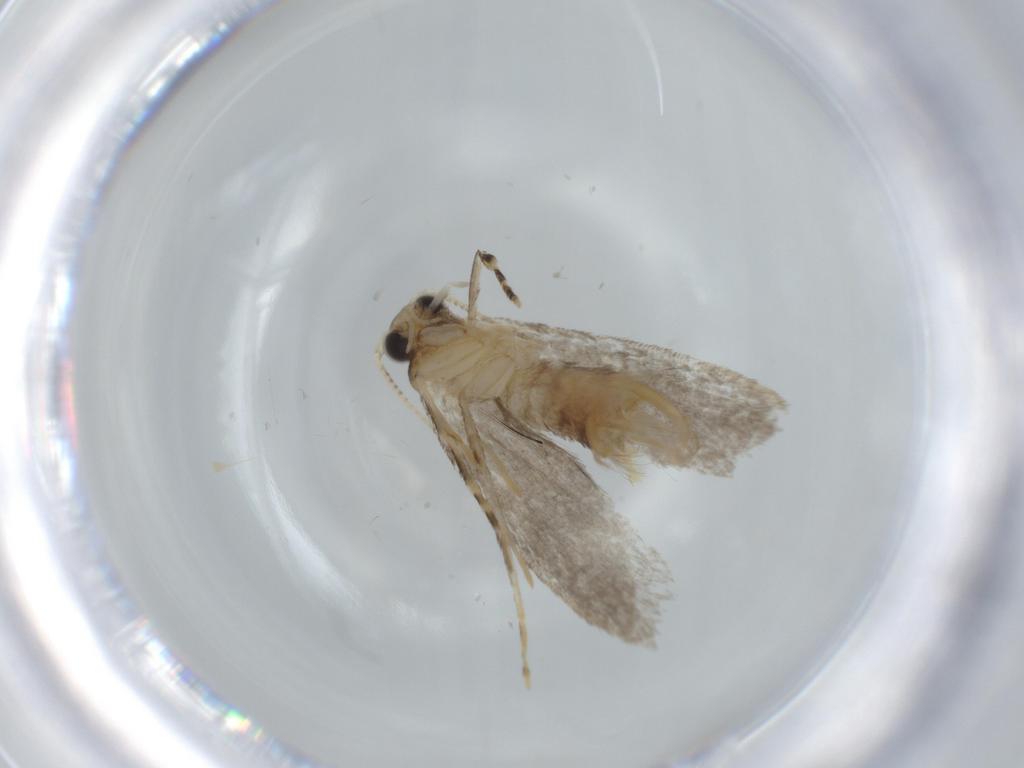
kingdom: Animalia
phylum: Arthropoda
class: Insecta
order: Lepidoptera
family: Tineidae
